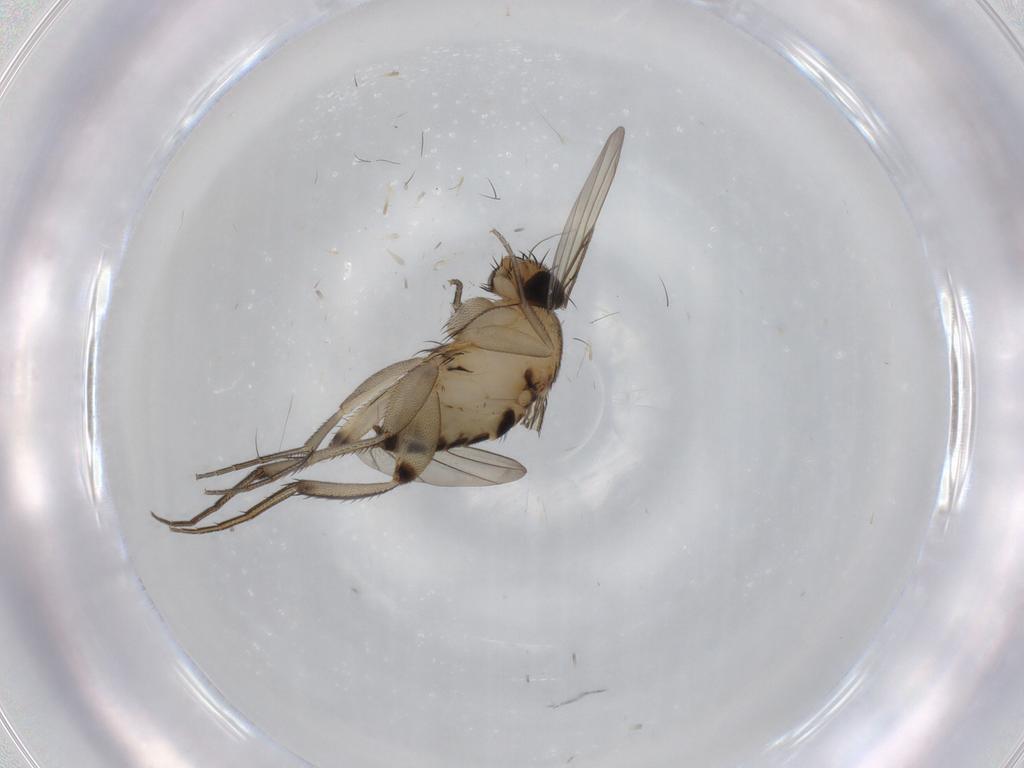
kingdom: Animalia
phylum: Arthropoda
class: Insecta
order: Diptera
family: Phoridae
